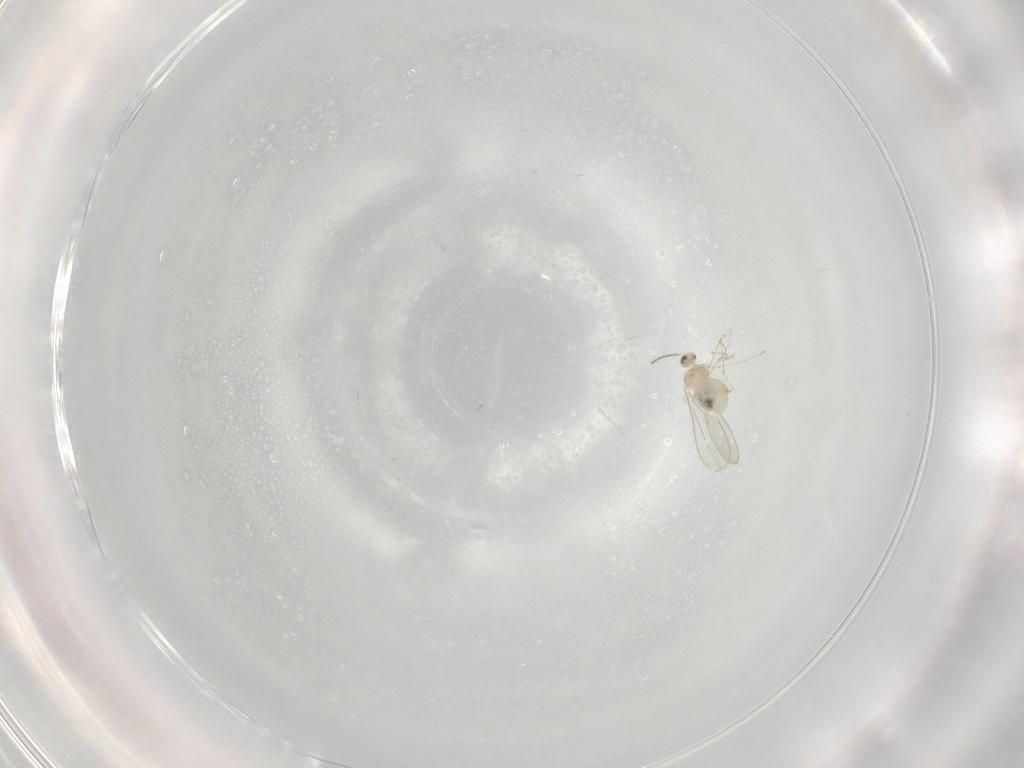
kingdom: Animalia
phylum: Arthropoda
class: Insecta
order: Diptera
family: Cecidomyiidae
